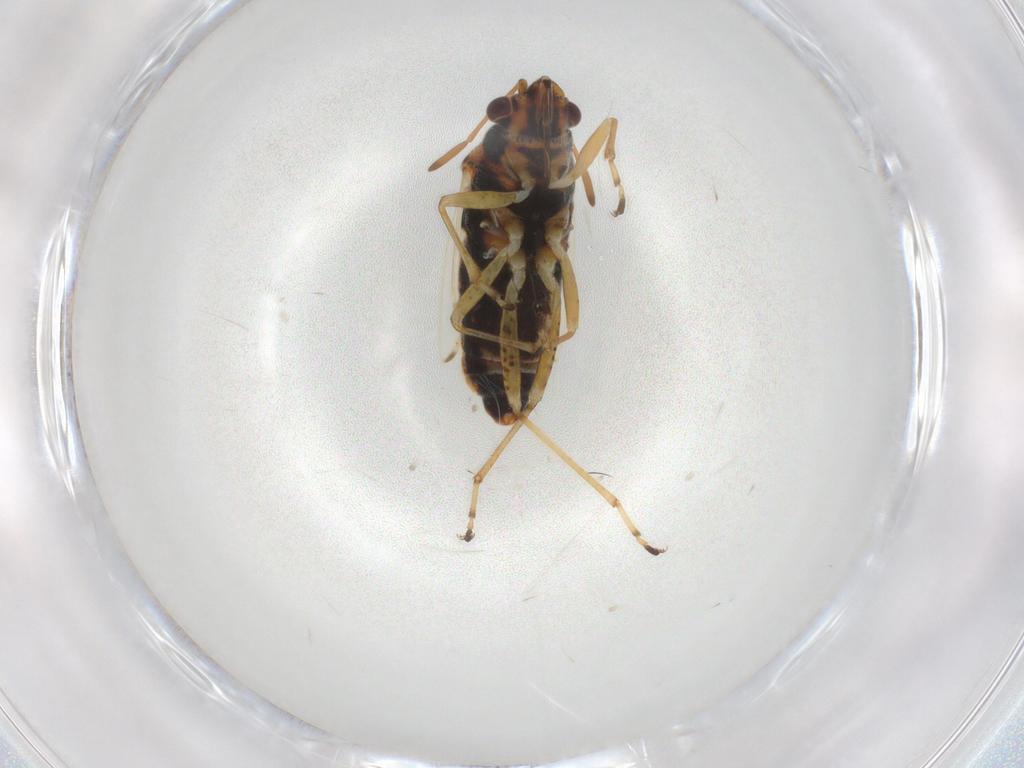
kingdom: Animalia
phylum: Arthropoda
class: Insecta
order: Hemiptera
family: Lygaeidae
